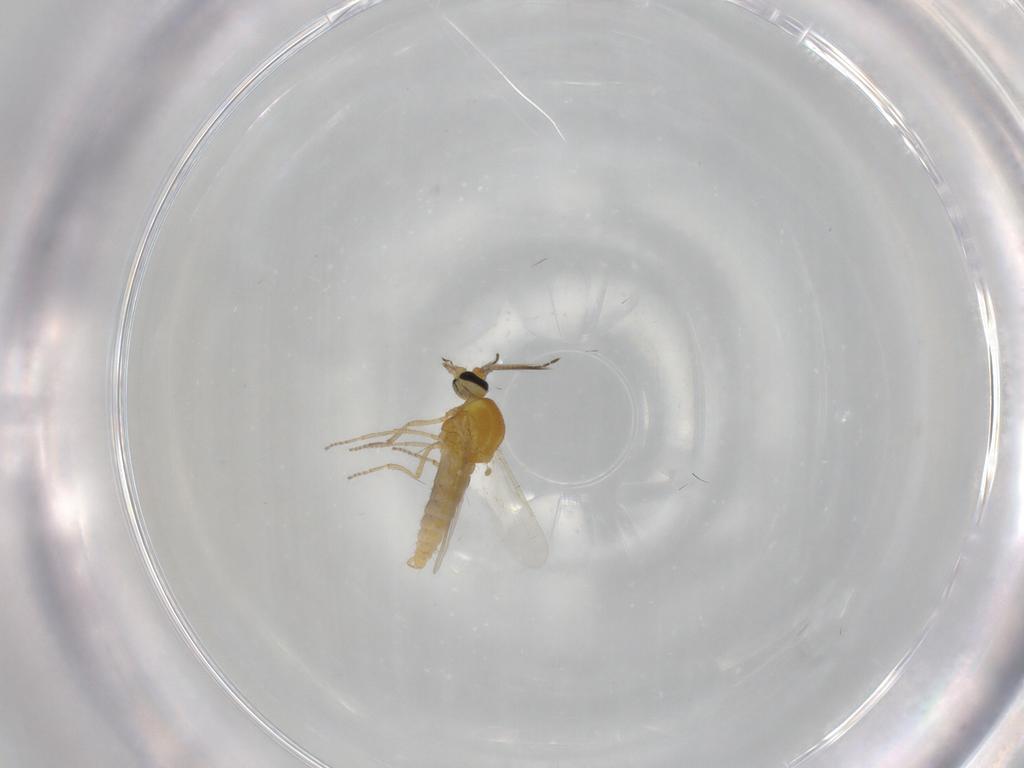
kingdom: Animalia
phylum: Arthropoda
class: Insecta
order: Diptera
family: Ceratopogonidae
